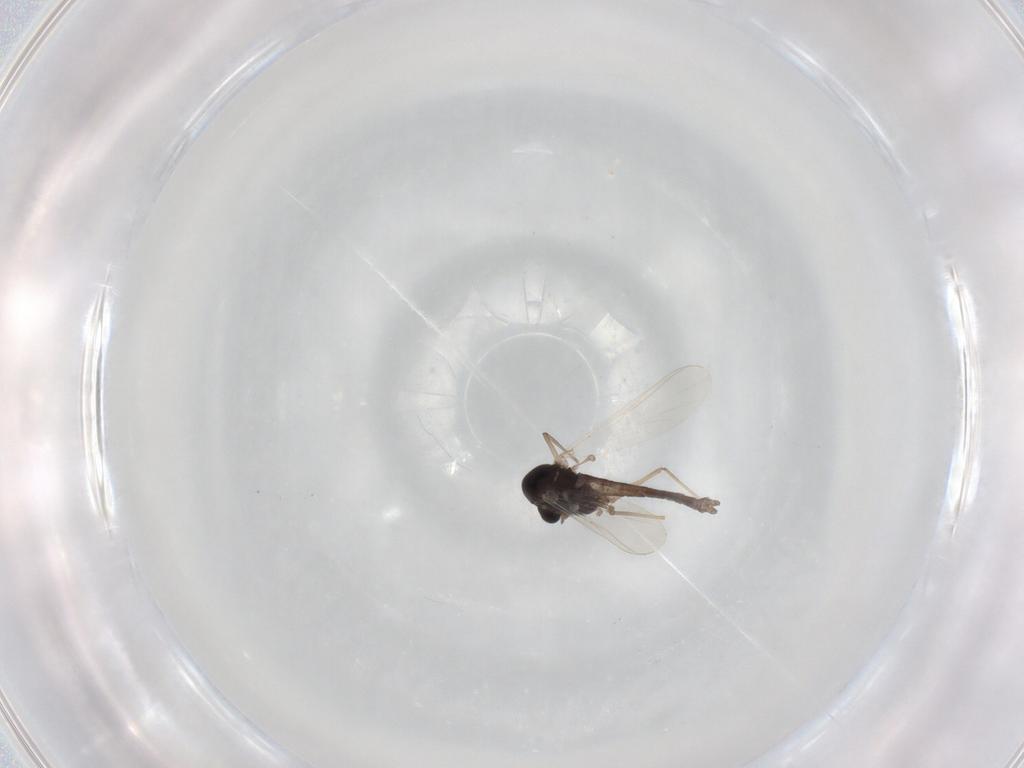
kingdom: Animalia
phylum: Arthropoda
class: Insecta
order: Diptera
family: Chironomidae
